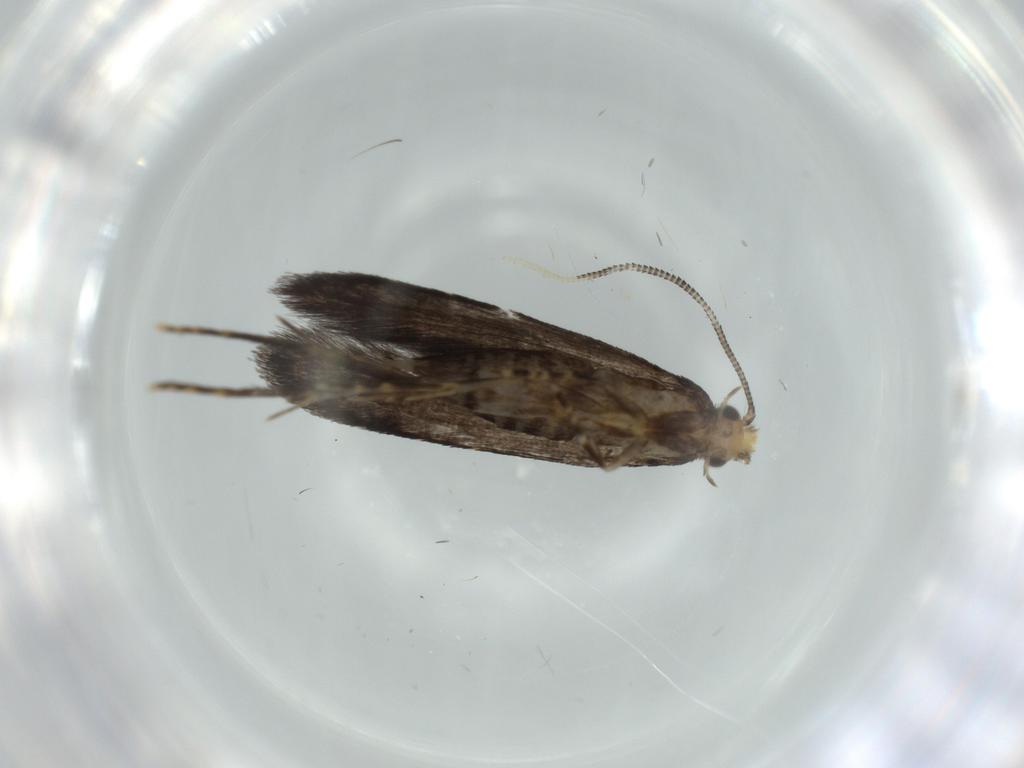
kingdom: Animalia
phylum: Arthropoda
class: Insecta
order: Lepidoptera
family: Tineidae
